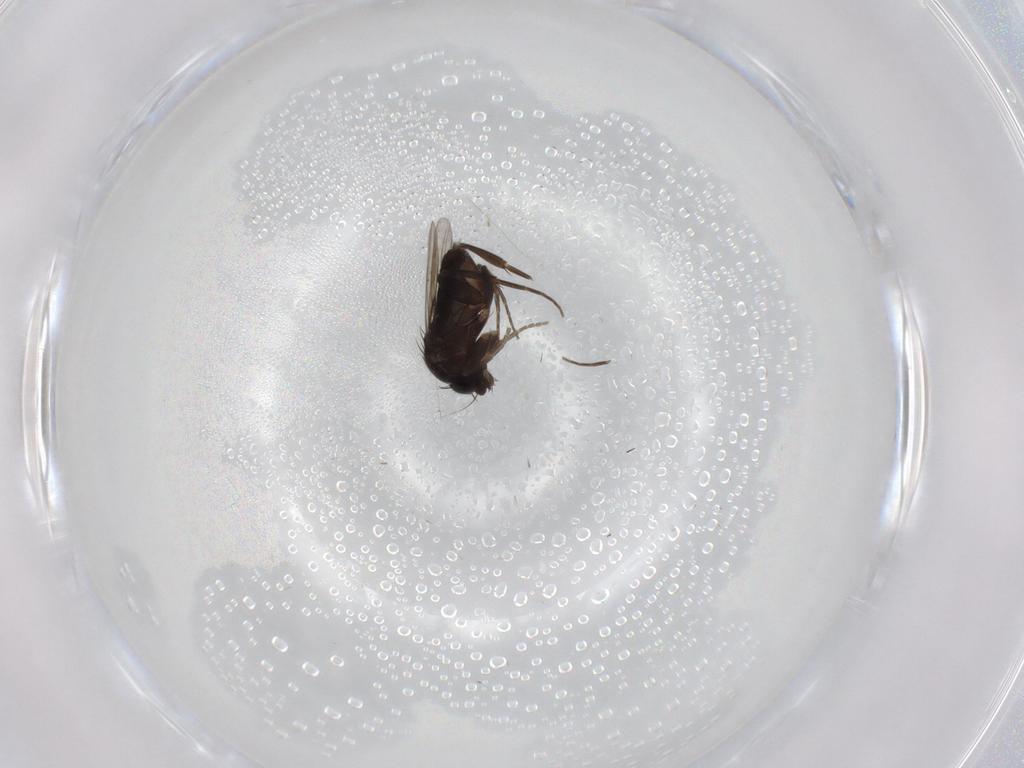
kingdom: Animalia
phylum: Arthropoda
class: Insecta
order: Diptera
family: Phoridae
